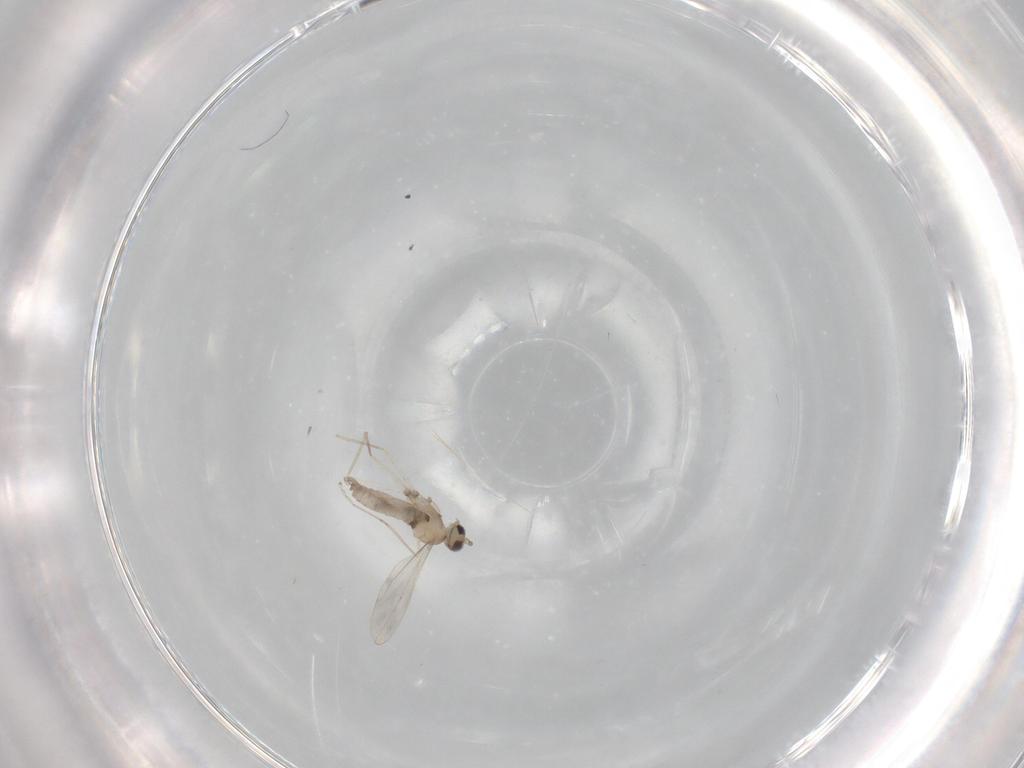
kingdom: Animalia
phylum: Arthropoda
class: Insecta
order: Diptera
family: Cecidomyiidae
